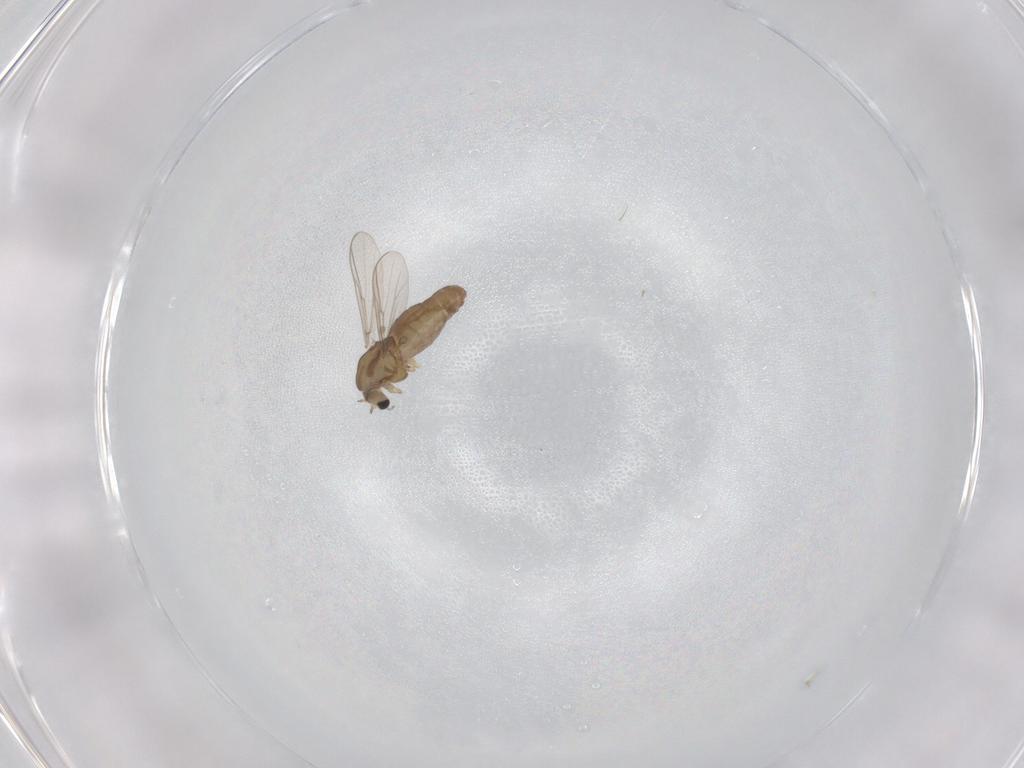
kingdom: Animalia
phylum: Arthropoda
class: Insecta
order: Diptera
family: Chironomidae
